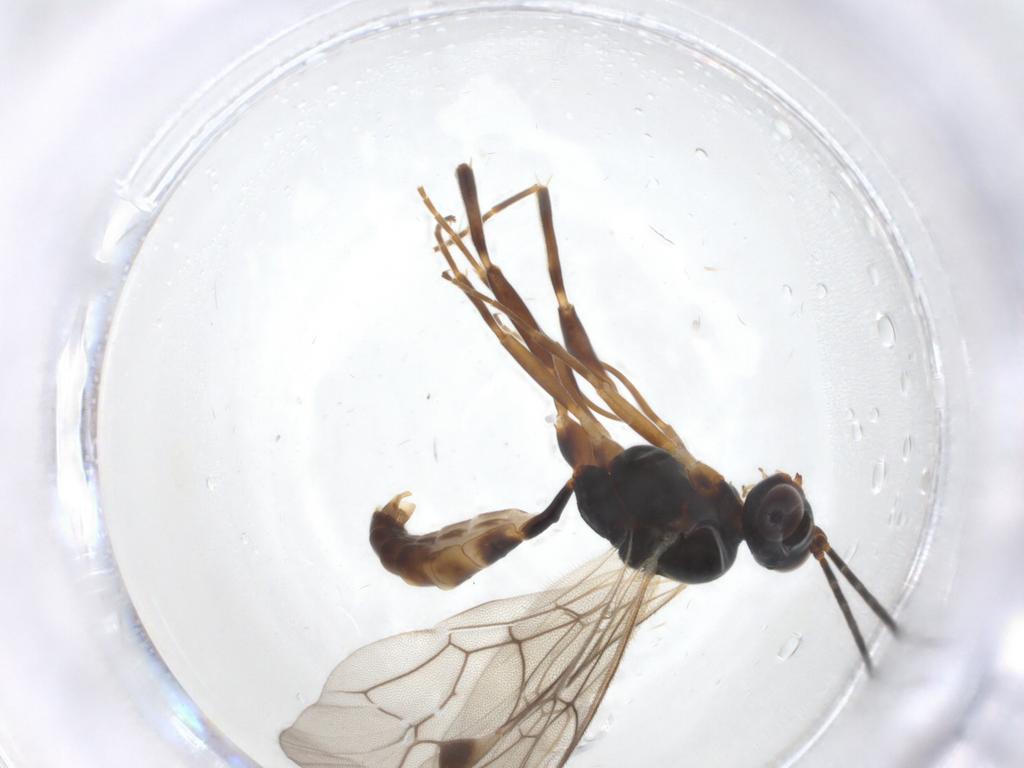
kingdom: Animalia
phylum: Arthropoda
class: Insecta
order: Hymenoptera
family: Ichneumonidae
